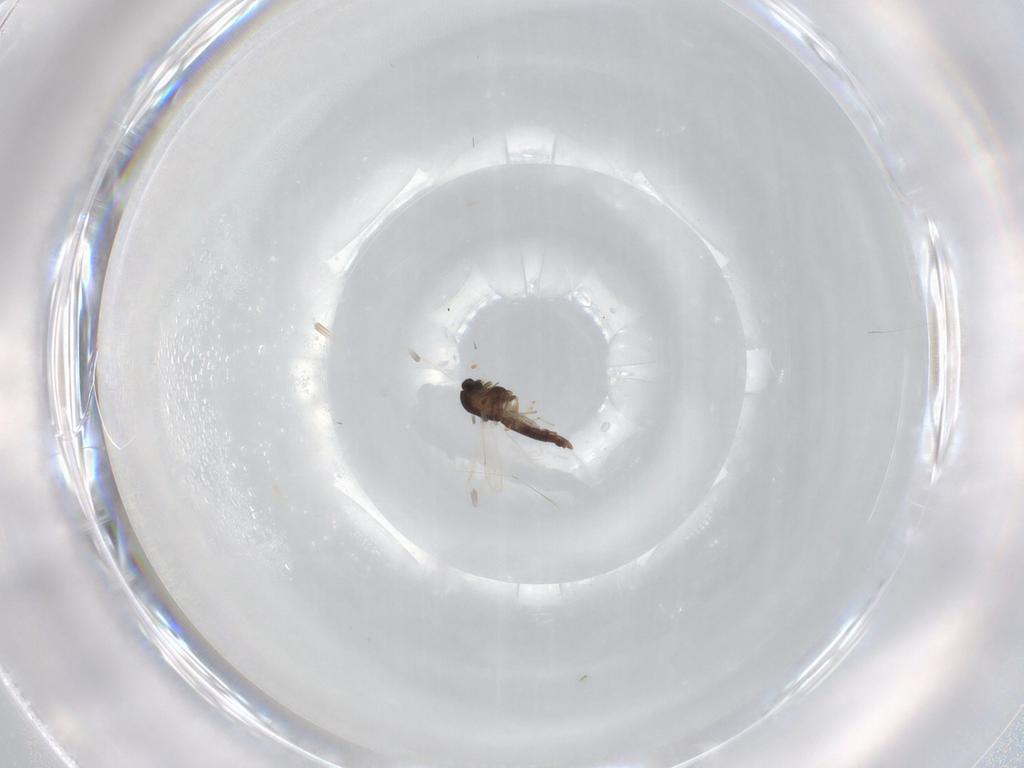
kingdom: Animalia
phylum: Arthropoda
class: Insecta
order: Diptera
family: Chironomidae
